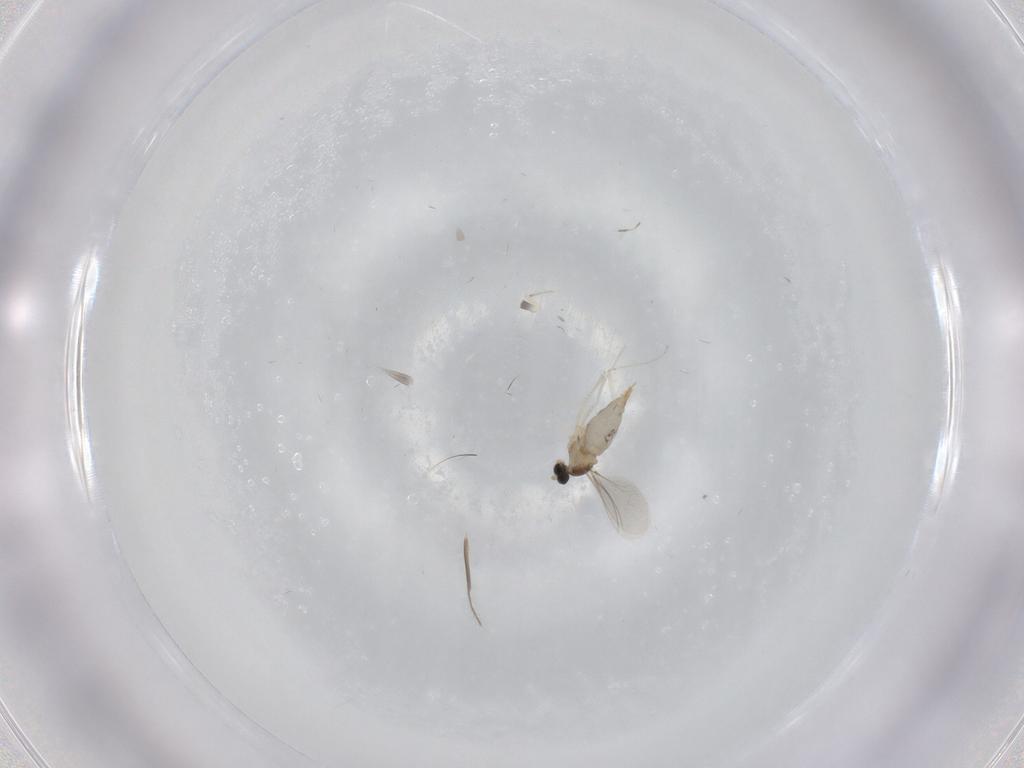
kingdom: Animalia
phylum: Arthropoda
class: Insecta
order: Diptera
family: Cecidomyiidae
